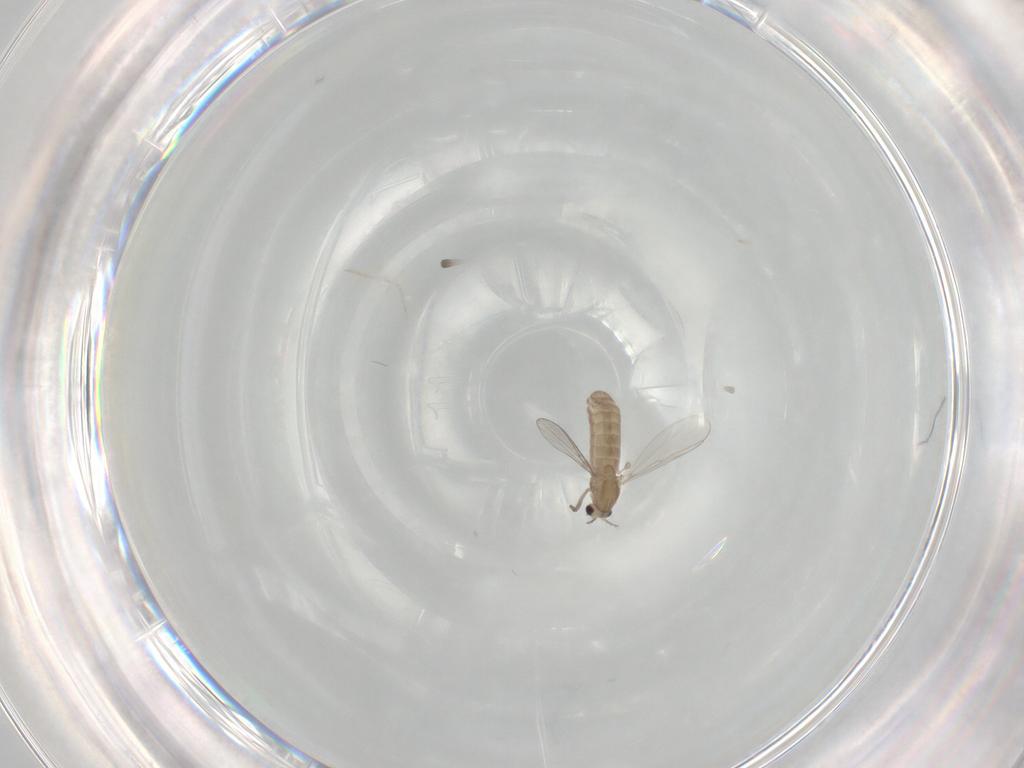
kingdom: Animalia
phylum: Arthropoda
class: Insecta
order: Diptera
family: Chironomidae
